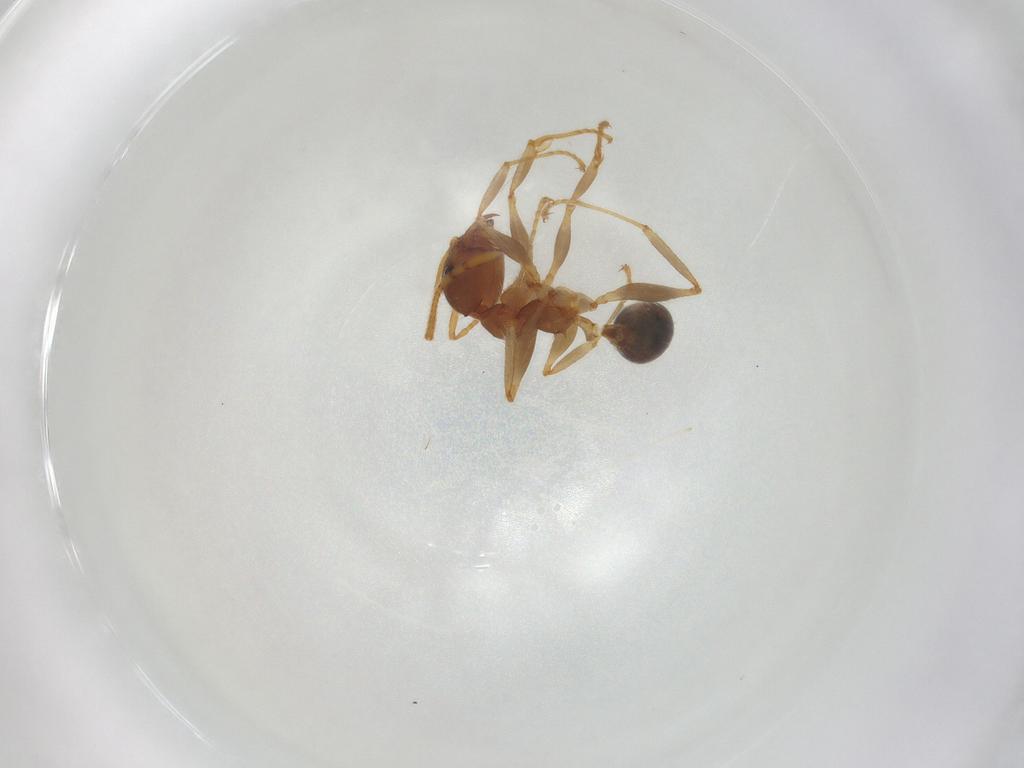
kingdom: Animalia
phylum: Arthropoda
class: Insecta
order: Hymenoptera
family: Formicidae
